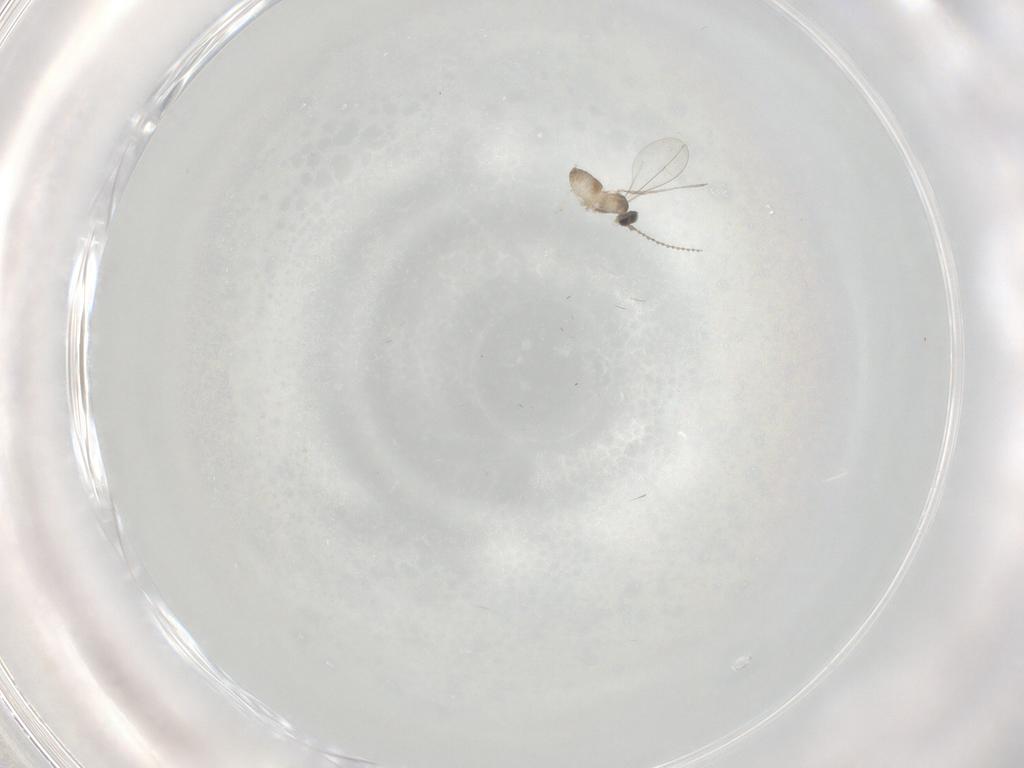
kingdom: Animalia
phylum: Arthropoda
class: Insecta
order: Diptera
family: Cecidomyiidae
